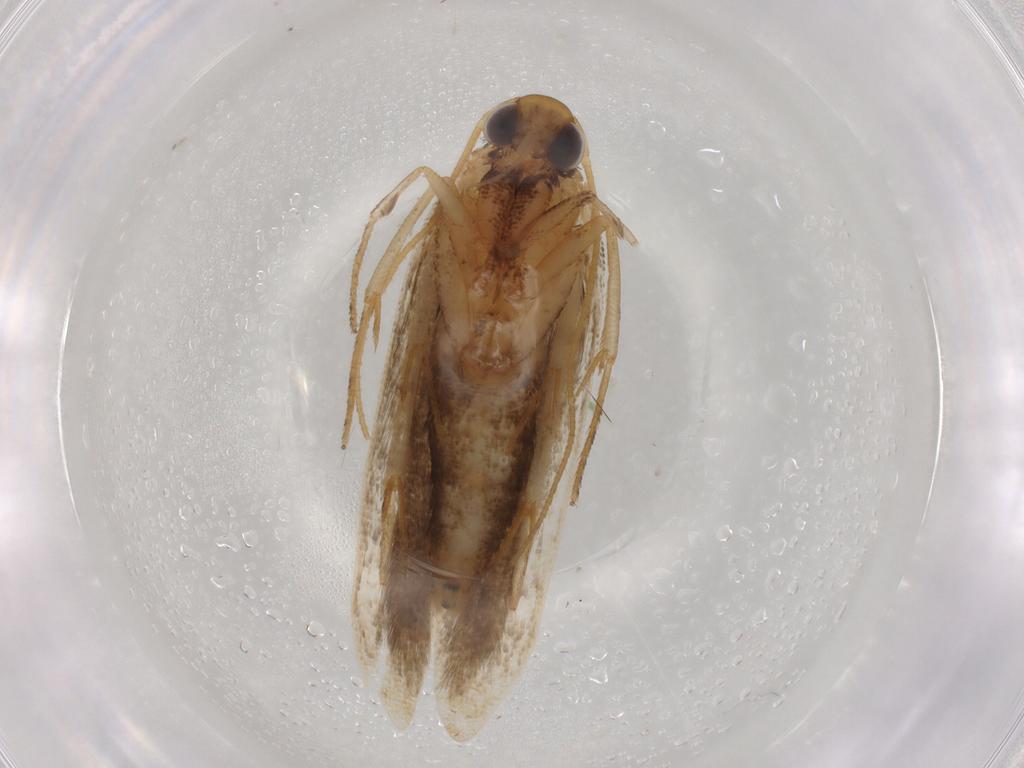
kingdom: Animalia
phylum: Arthropoda
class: Insecta
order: Lepidoptera
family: Gelechiidae
